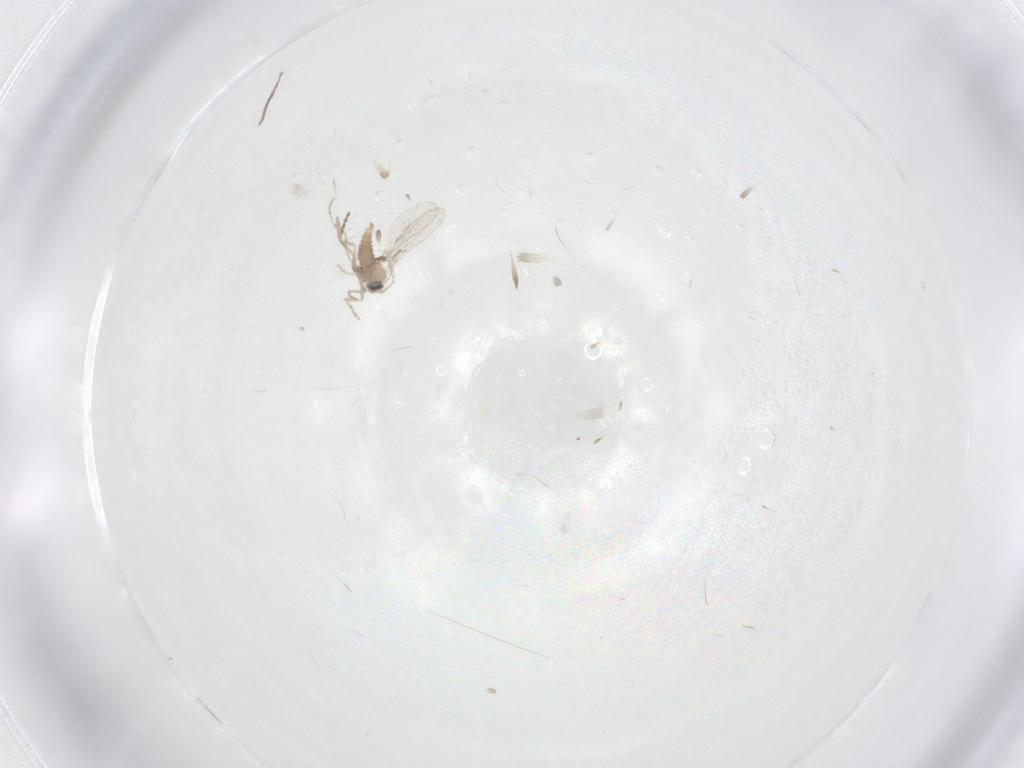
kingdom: Animalia
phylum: Arthropoda
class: Insecta
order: Diptera
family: Cecidomyiidae
